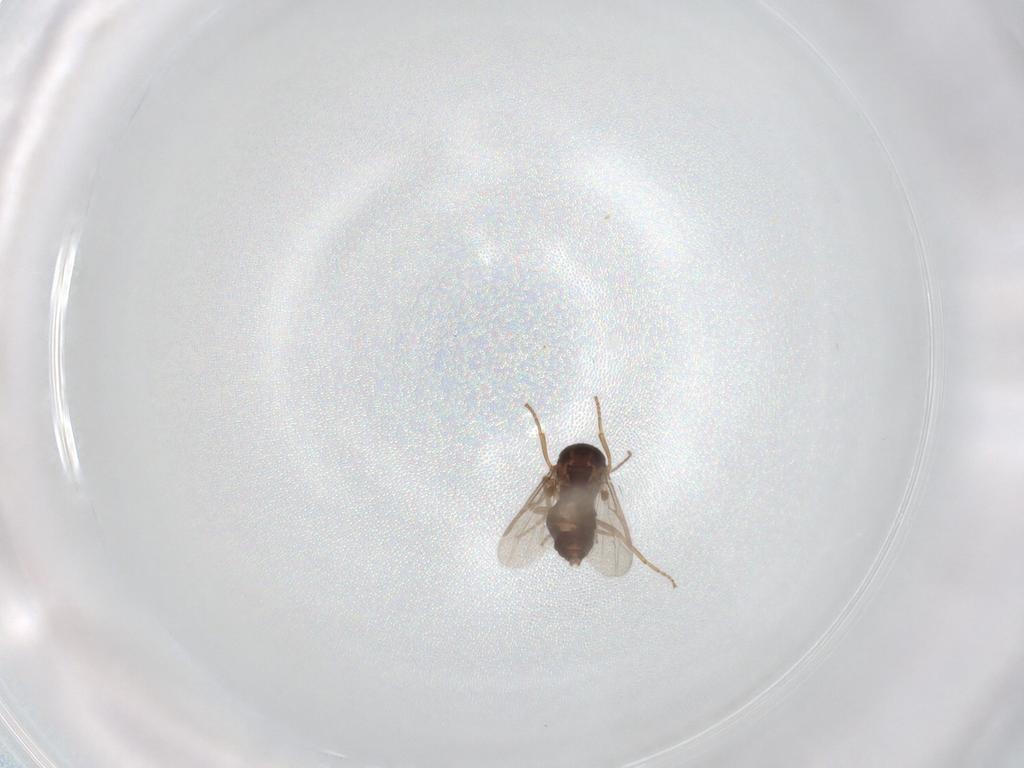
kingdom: Animalia
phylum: Arthropoda
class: Insecta
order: Diptera
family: Ceratopogonidae
